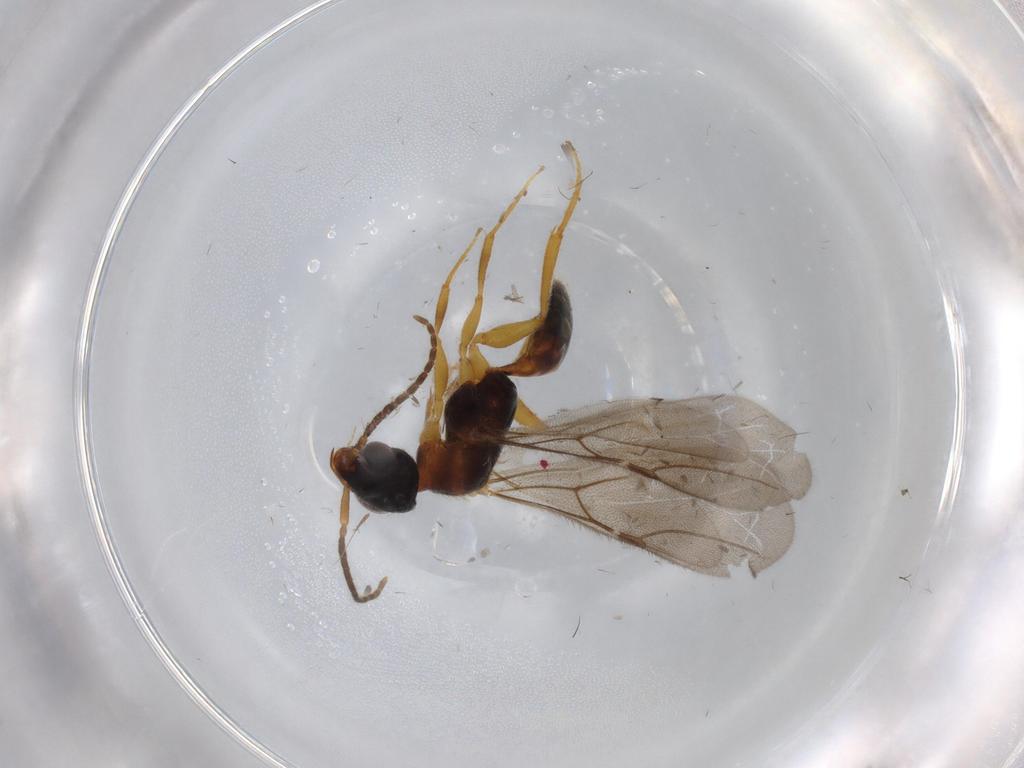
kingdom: Animalia
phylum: Arthropoda
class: Insecta
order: Hymenoptera
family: Bethylidae
